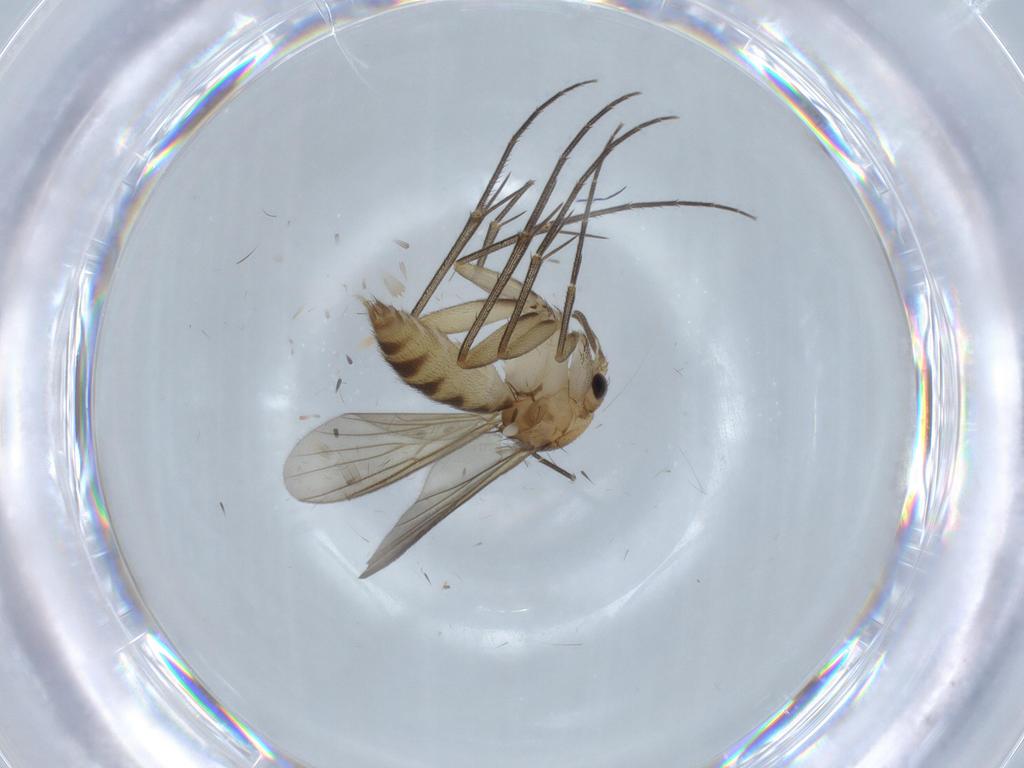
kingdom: Animalia
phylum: Arthropoda
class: Insecta
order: Diptera
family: Mycetophilidae
